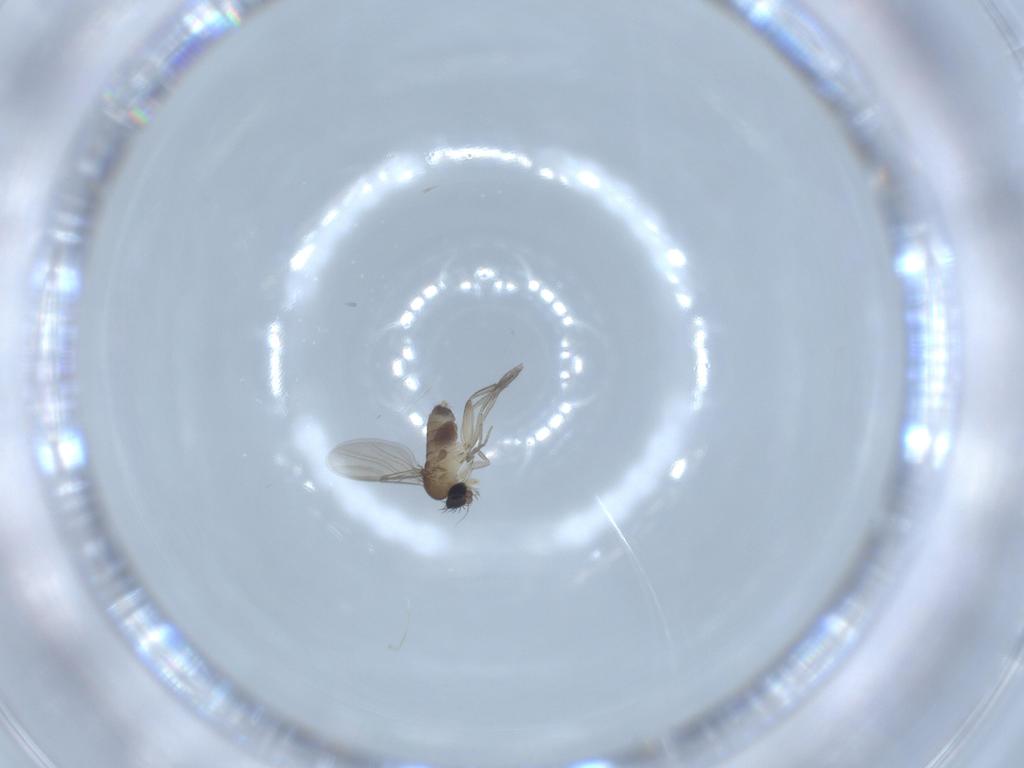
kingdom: Animalia
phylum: Arthropoda
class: Insecta
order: Diptera
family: Phoridae
